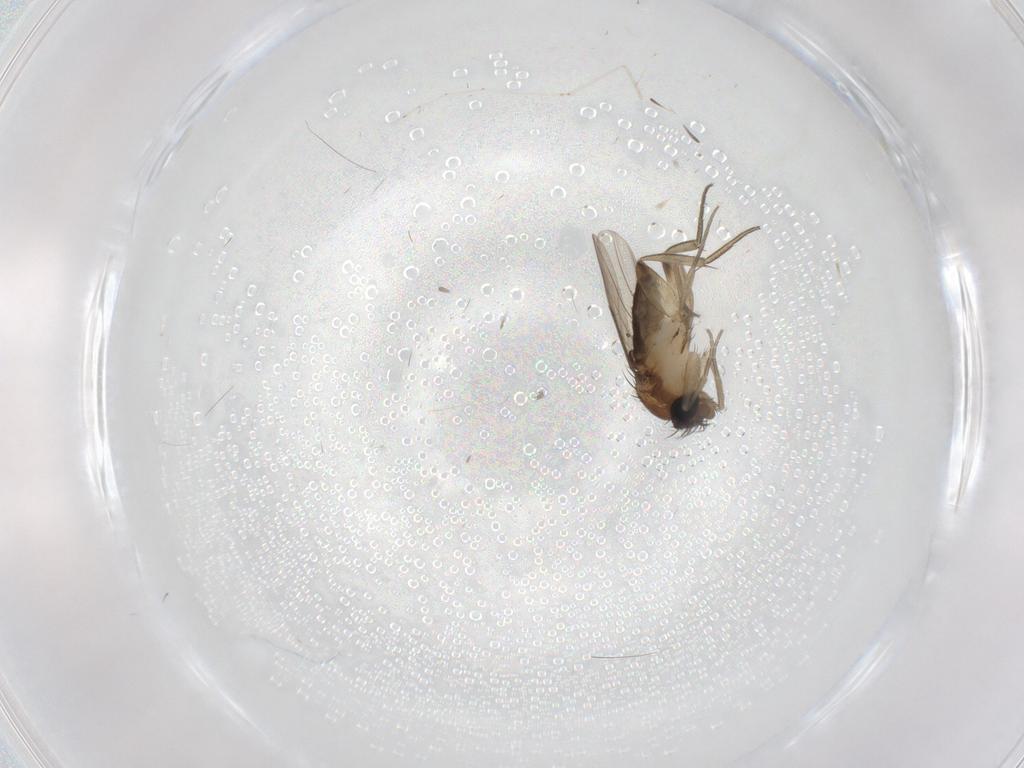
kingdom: Animalia
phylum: Arthropoda
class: Insecta
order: Diptera
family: Phoridae
